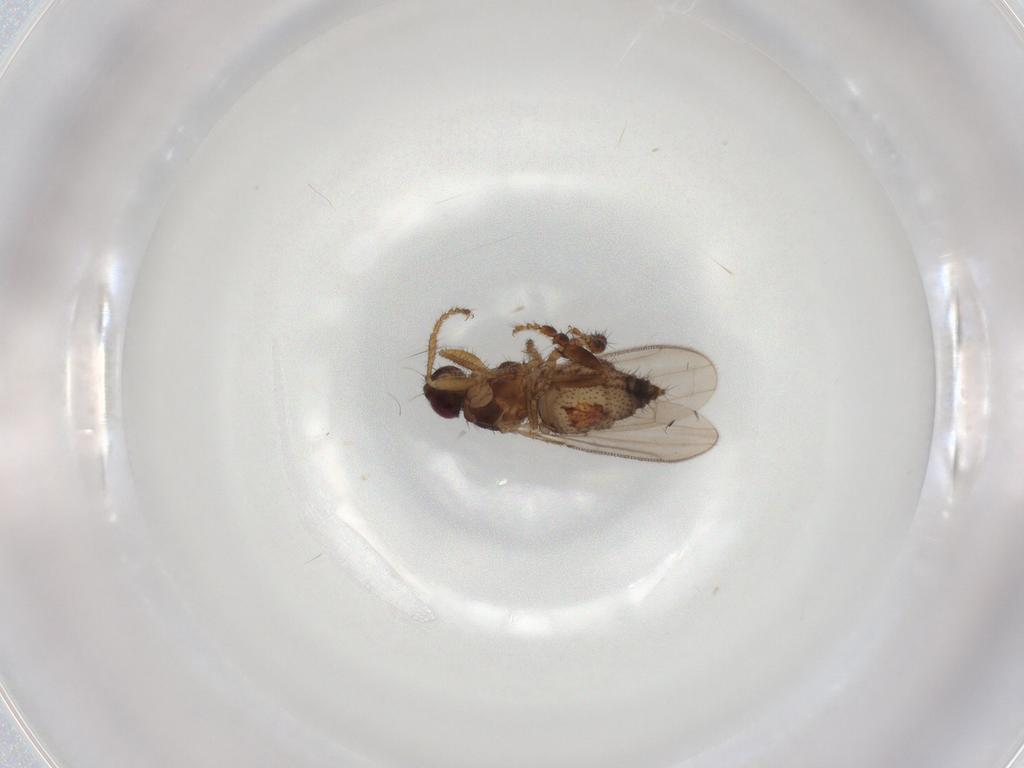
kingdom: Animalia
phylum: Arthropoda
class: Insecta
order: Diptera
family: Sphaeroceridae
